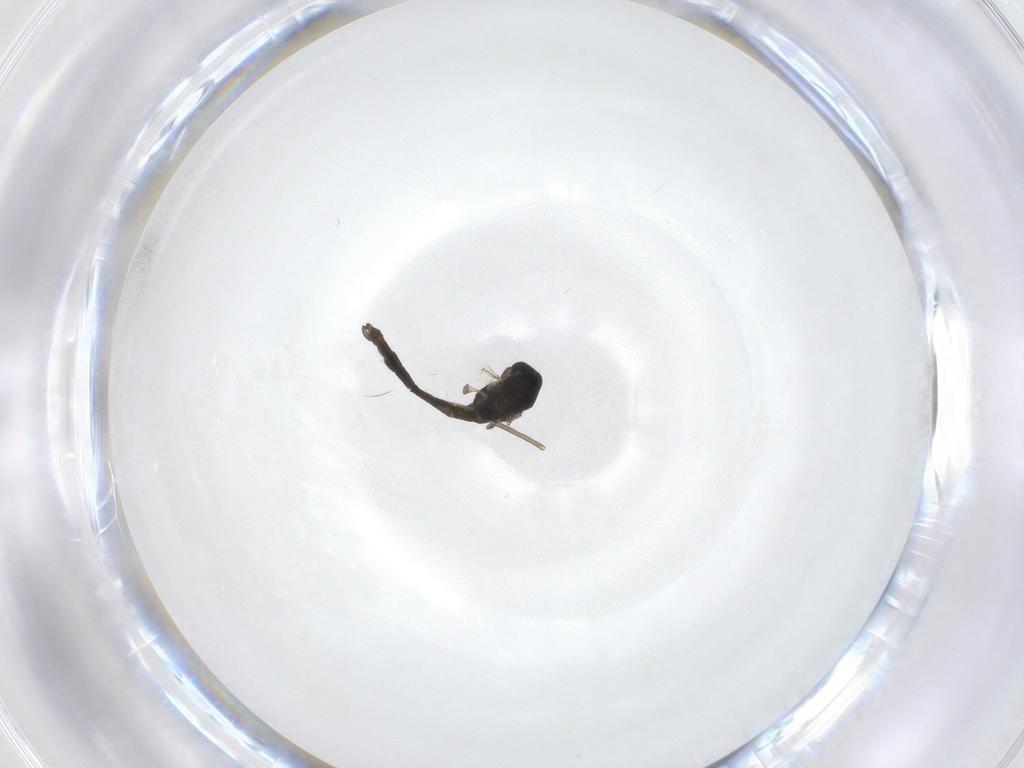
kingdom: Animalia
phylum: Arthropoda
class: Insecta
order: Diptera
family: Chironomidae
